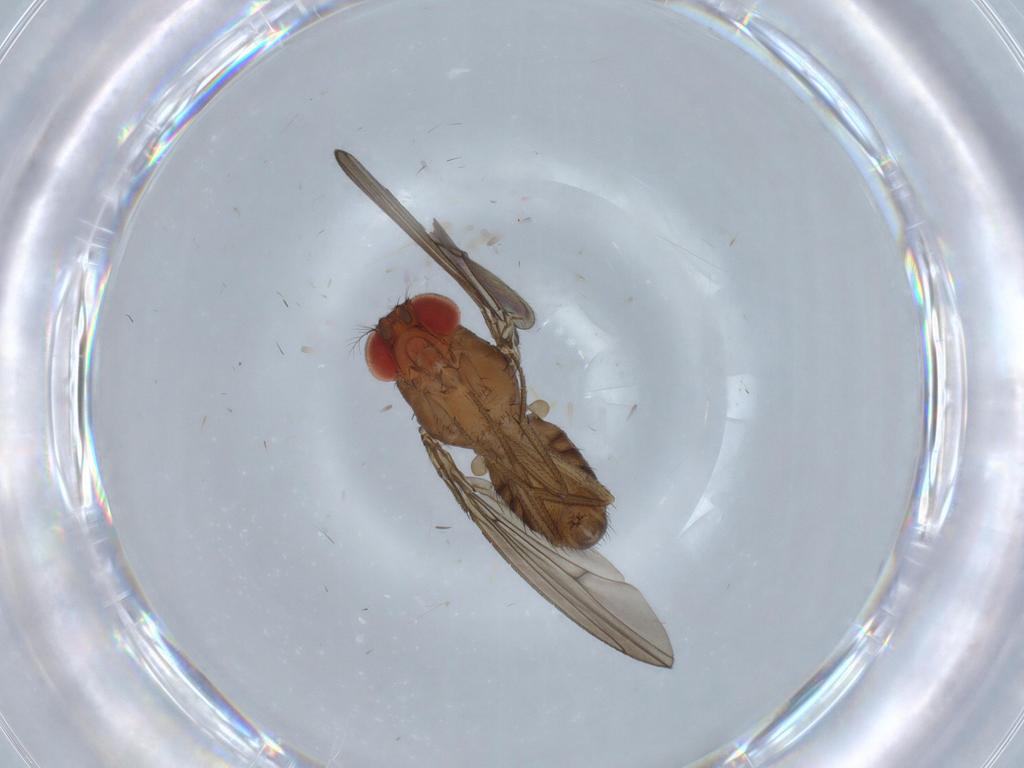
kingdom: Animalia
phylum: Arthropoda
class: Insecta
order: Diptera
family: Drosophilidae
